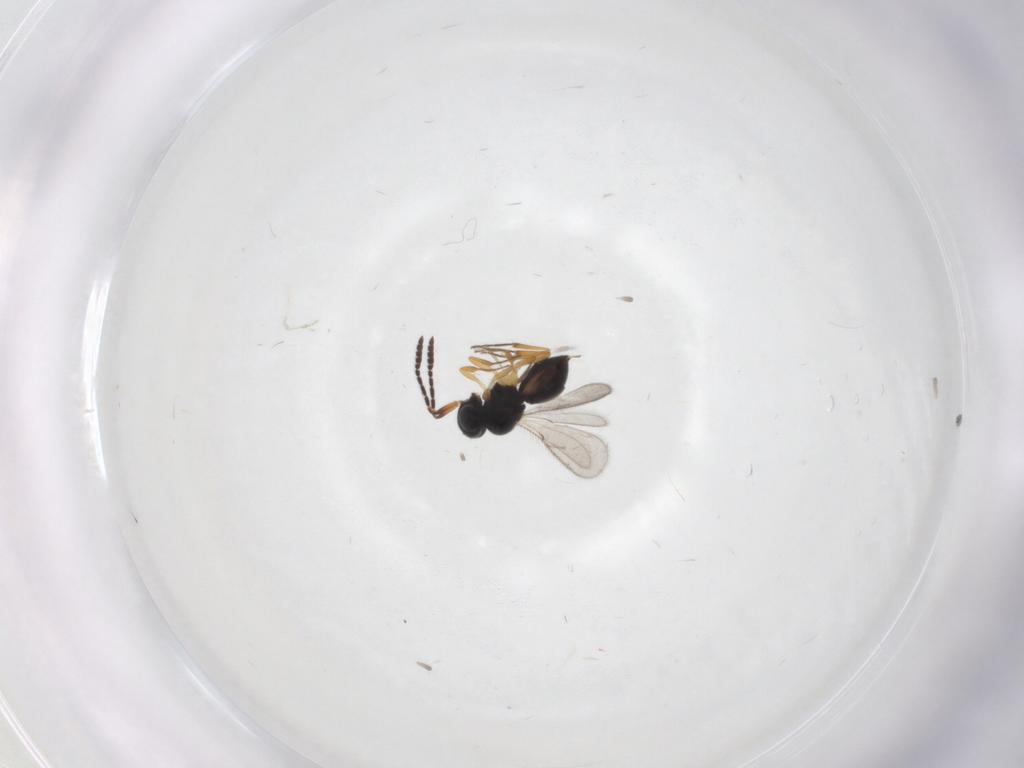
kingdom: Animalia
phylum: Arthropoda
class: Insecta
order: Hymenoptera
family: Scelionidae
